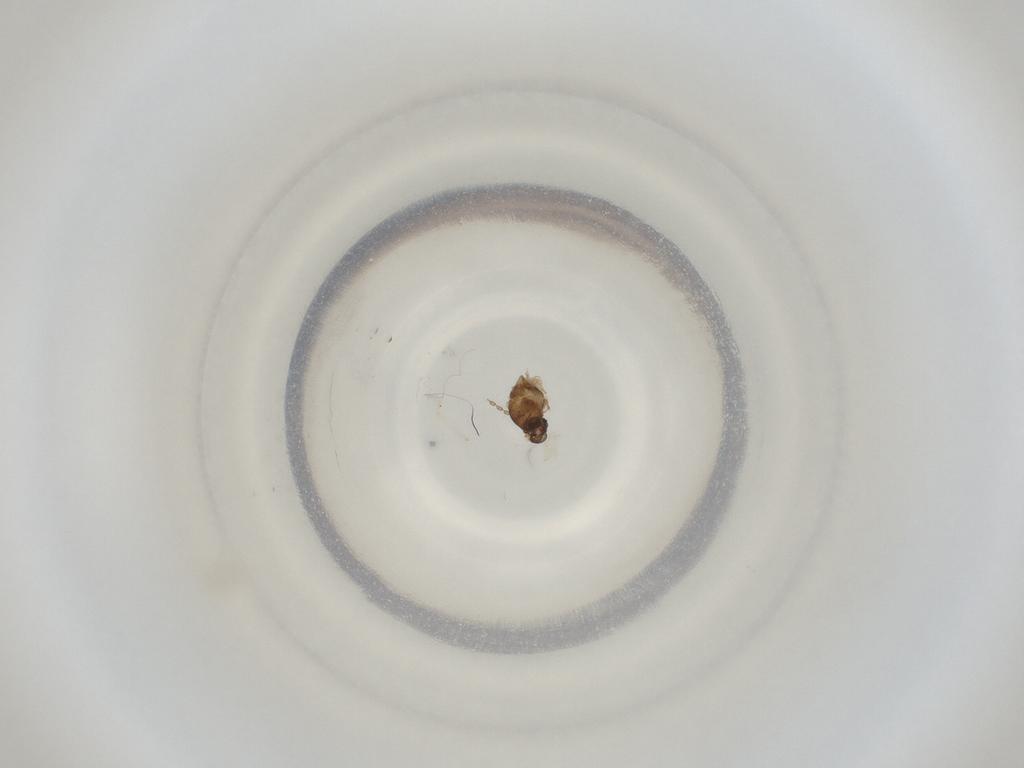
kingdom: Animalia
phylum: Arthropoda
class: Insecta
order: Diptera
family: Cecidomyiidae
